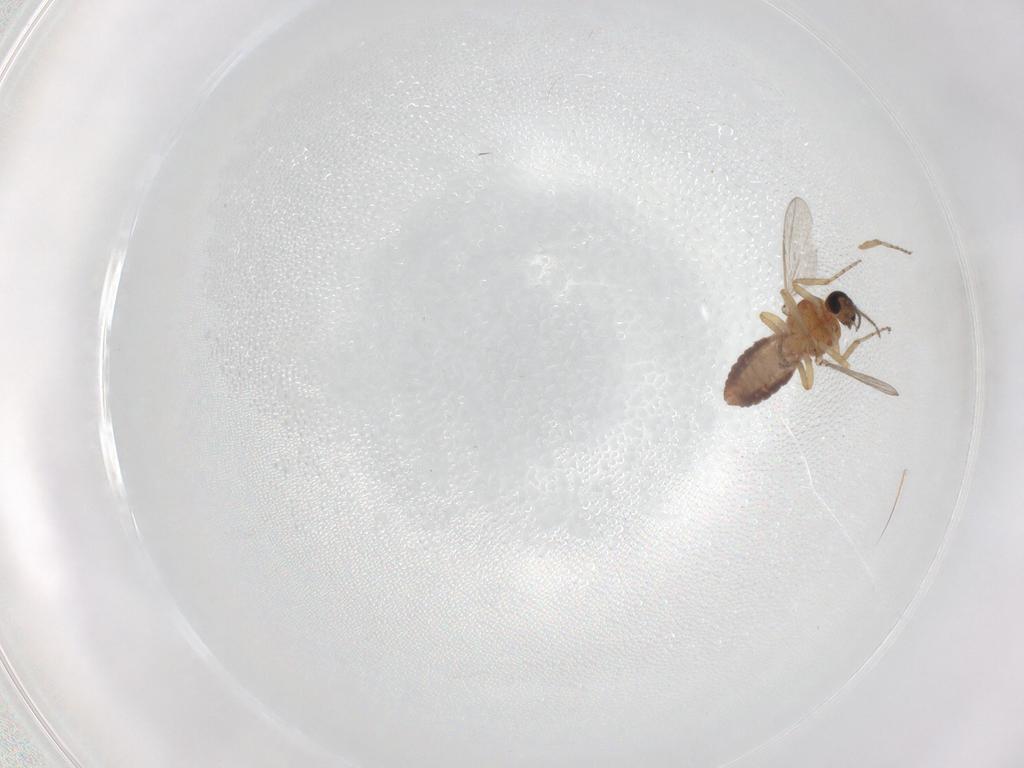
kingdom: Animalia
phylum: Arthropoda
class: Insecta
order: Diptera
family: Ceratopogonidae
